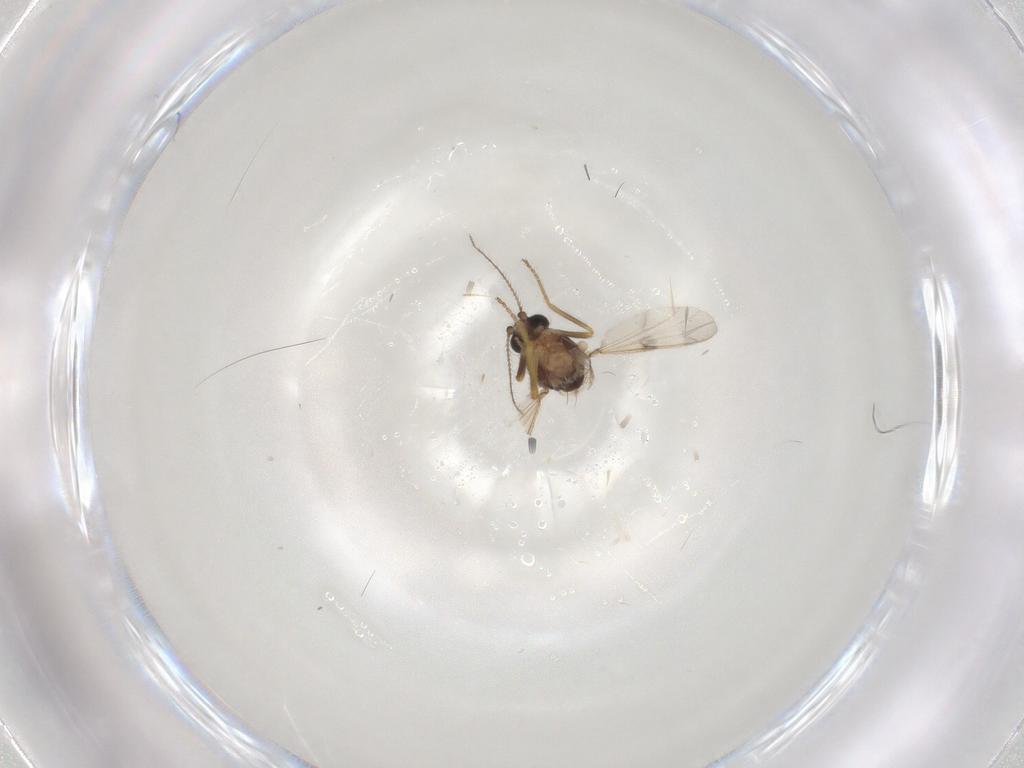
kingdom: Animalia
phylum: Arthropoda
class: Insecta
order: Diptera
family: Ceratopogonidae
